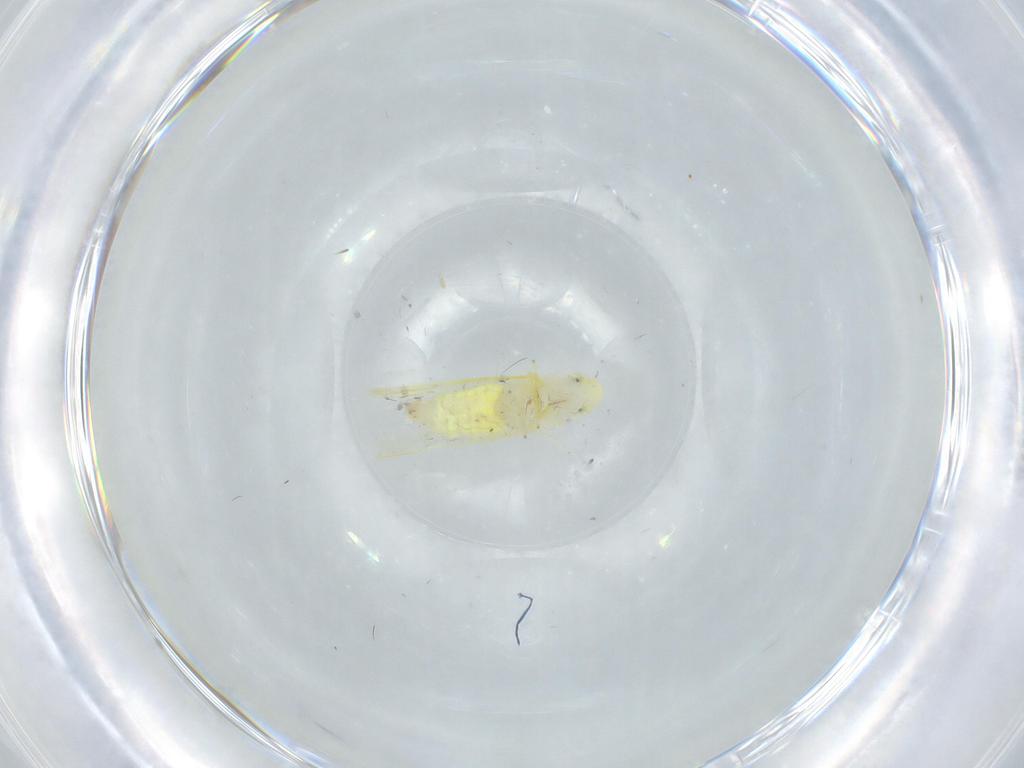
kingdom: Animalia
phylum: Arthropoda
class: Insecta
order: Hemiptera
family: Cicadellidae
